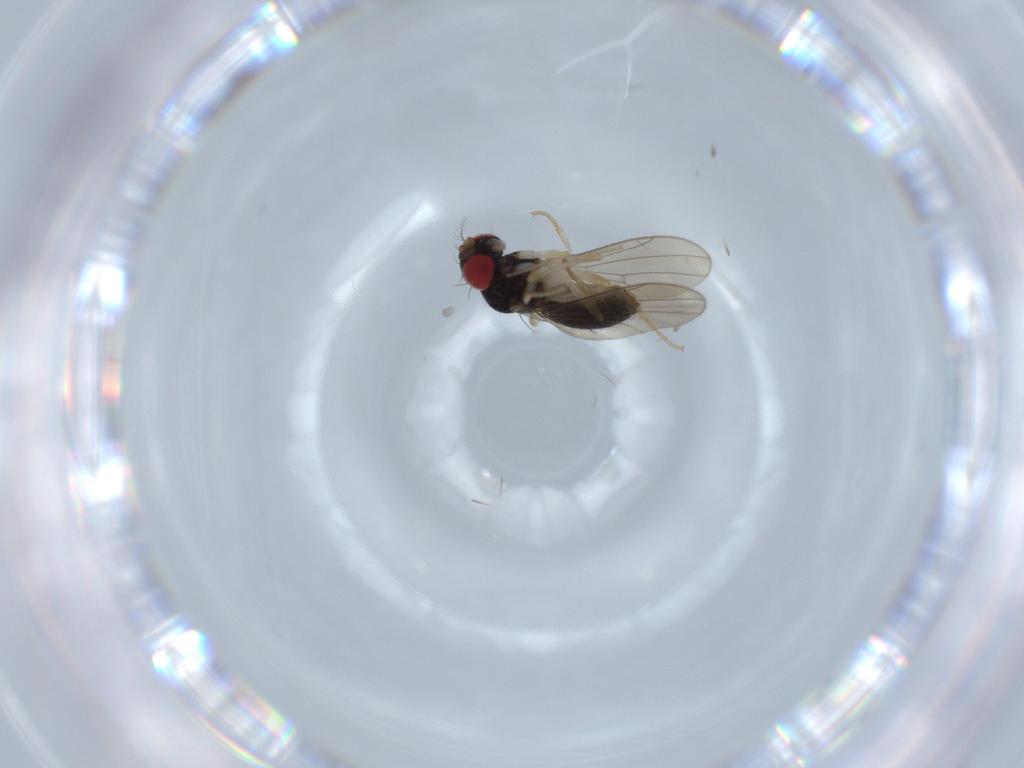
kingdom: Animalia
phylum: Arthropoda
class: Insecta
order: Diptera
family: Drosophilidae
